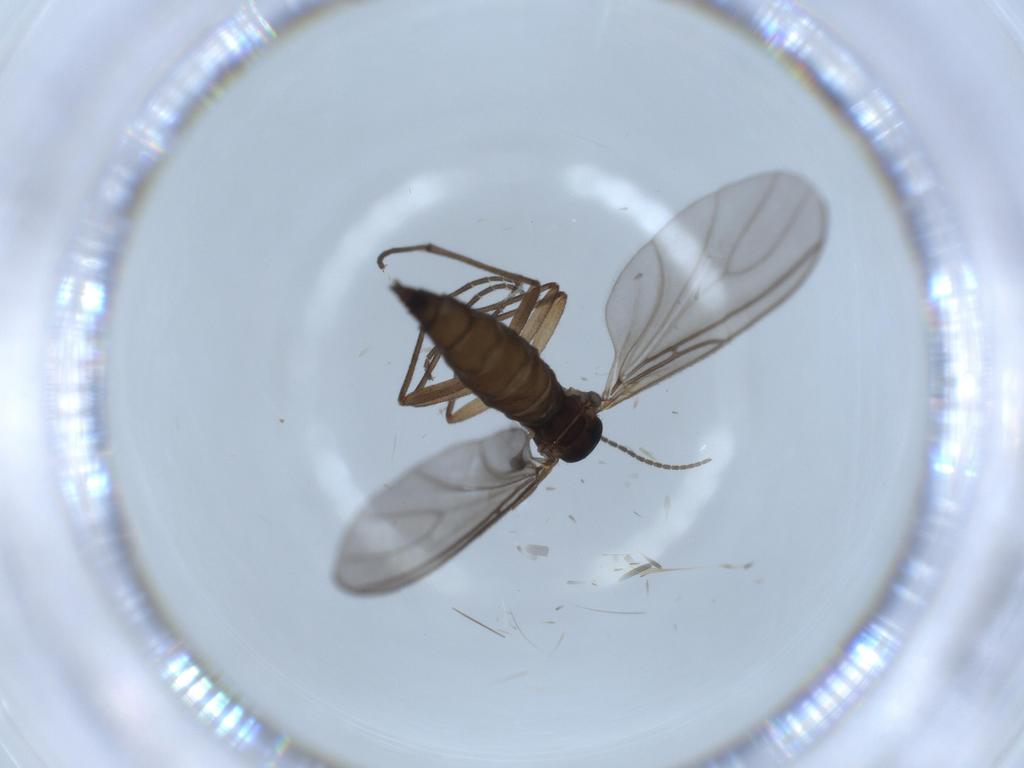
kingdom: Animalia
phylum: Arthropoda
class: Insecta
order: Diptera
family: Sciaridae
